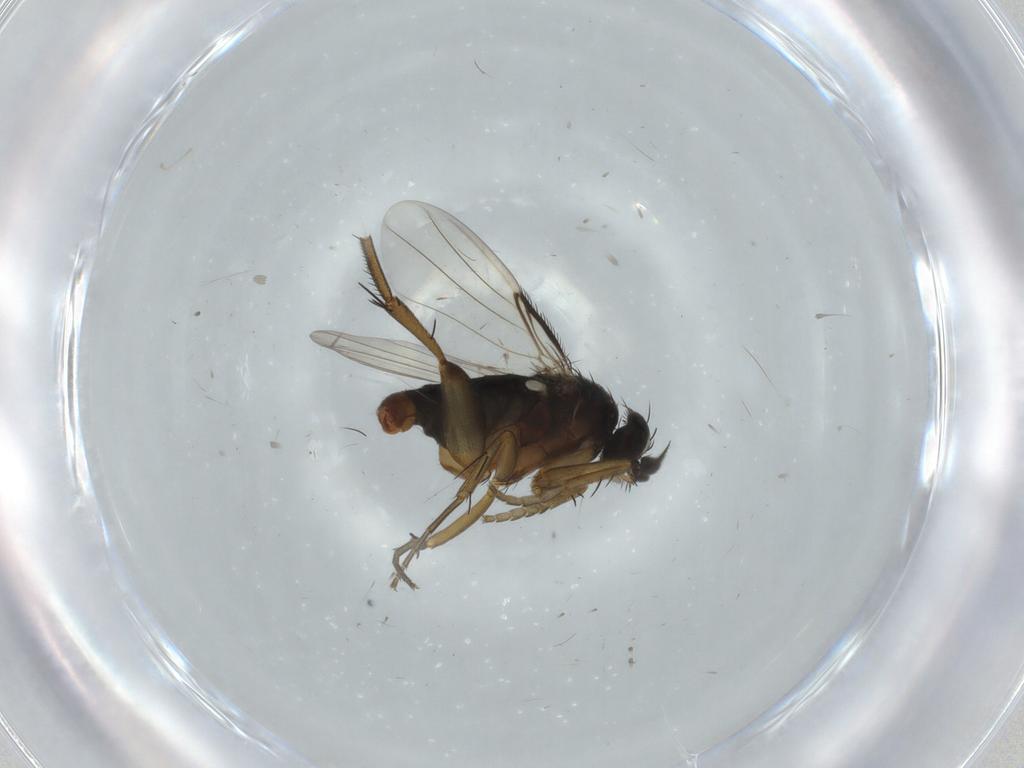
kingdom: Animalia
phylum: Arthropoda
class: Insecta
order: Diptera
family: Phoridae
